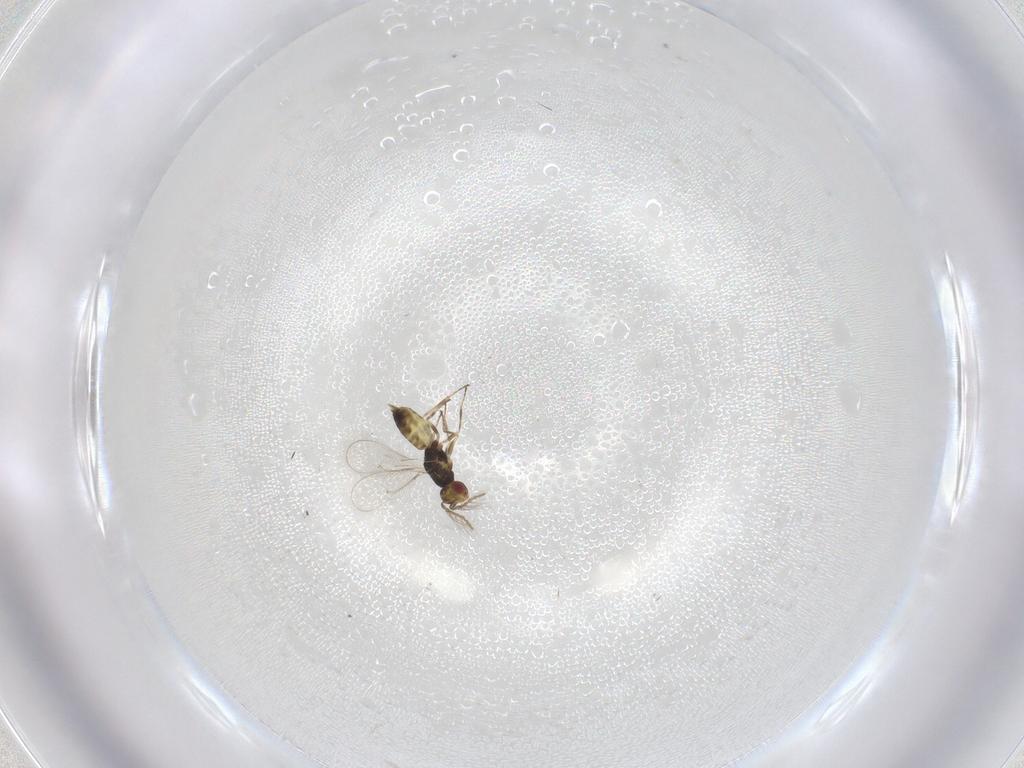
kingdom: Animalia
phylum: Arthropoda
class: Insecta
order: Hymenoptera
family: Eulophidae
